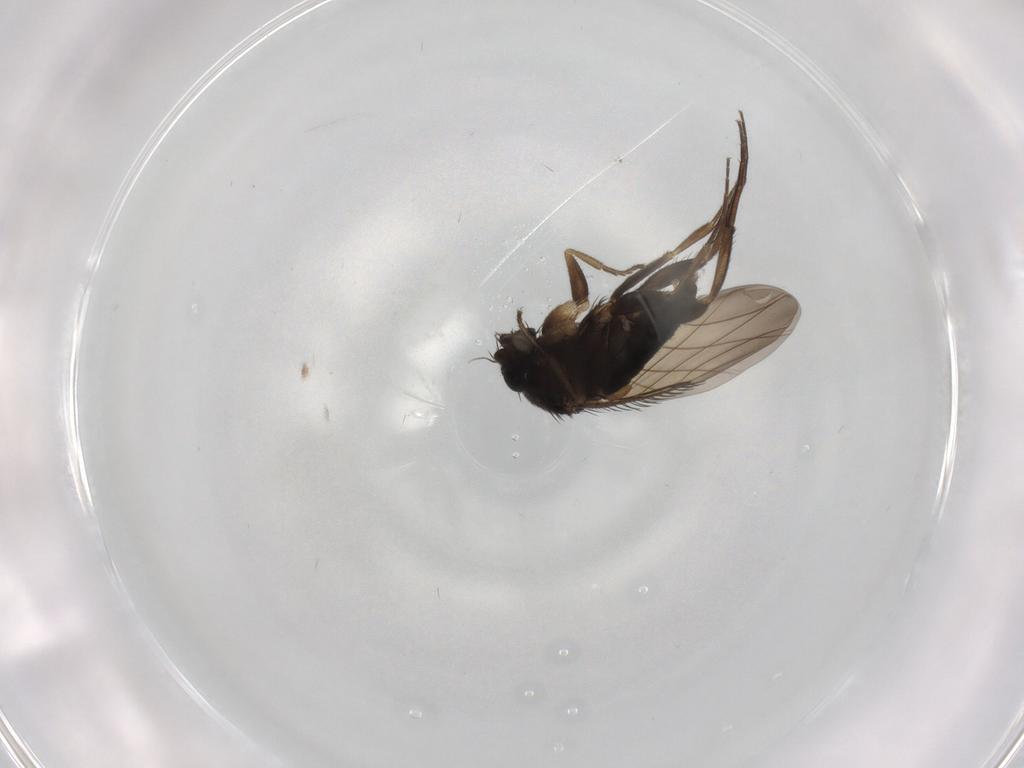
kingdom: Animalia
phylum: Arthropoda
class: Insecta
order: Diptera
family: Phoridae
